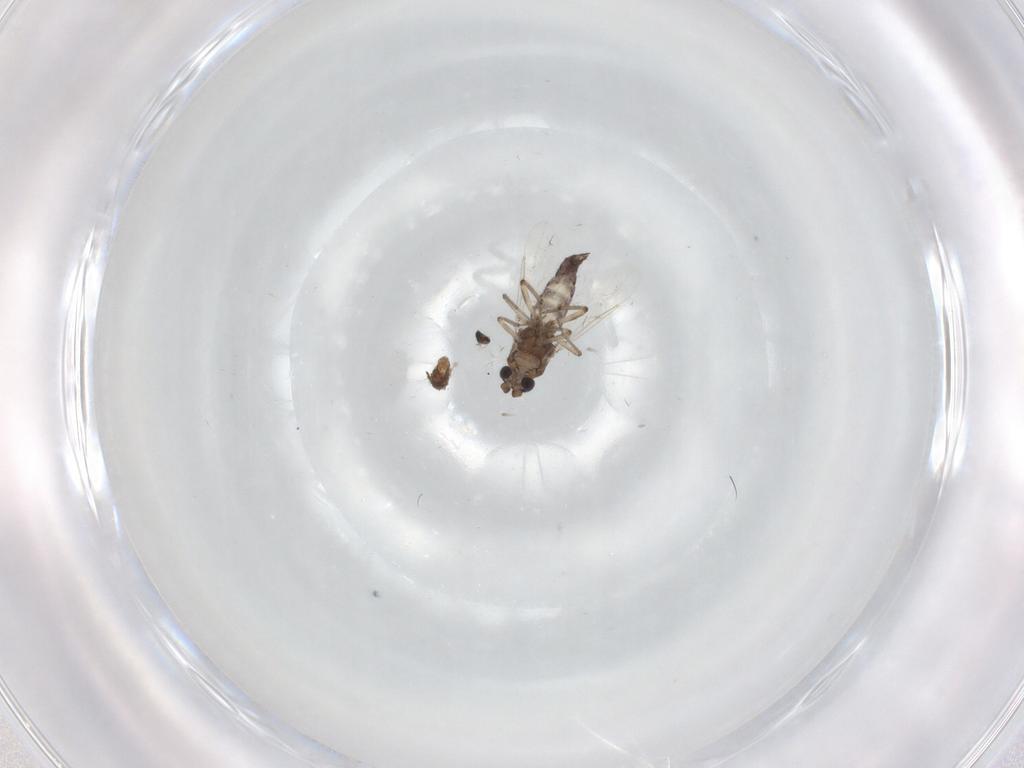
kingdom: Animalia
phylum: Arthropoda
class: Insecta
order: Diptera
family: Ceratopogonidae
